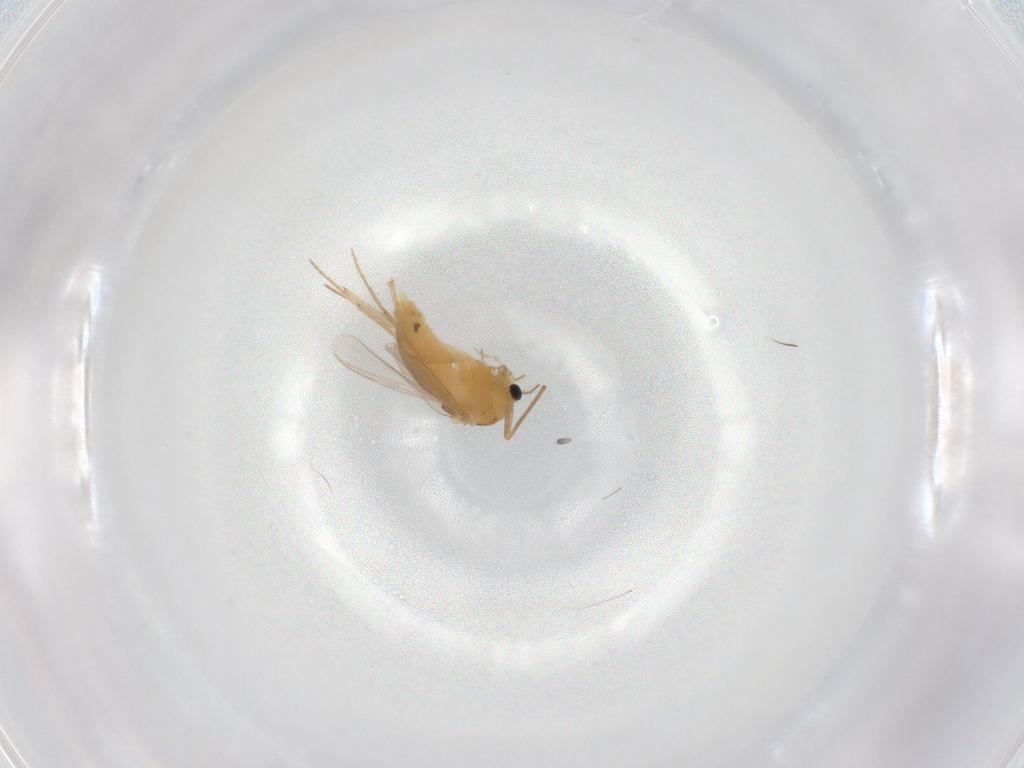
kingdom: Animalia
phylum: Arthropoda
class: Insecta
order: Diptera
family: Chironomidae
